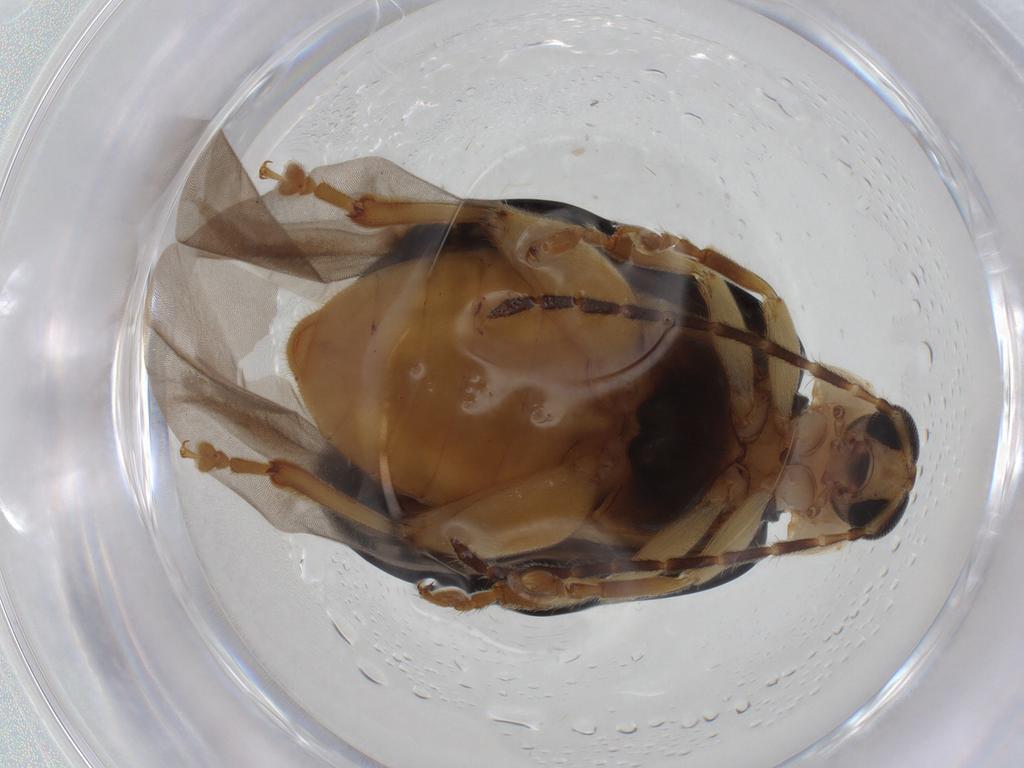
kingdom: Animalia
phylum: Arthropoda
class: Insecta
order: Coleoptera
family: Chrysomelidae
